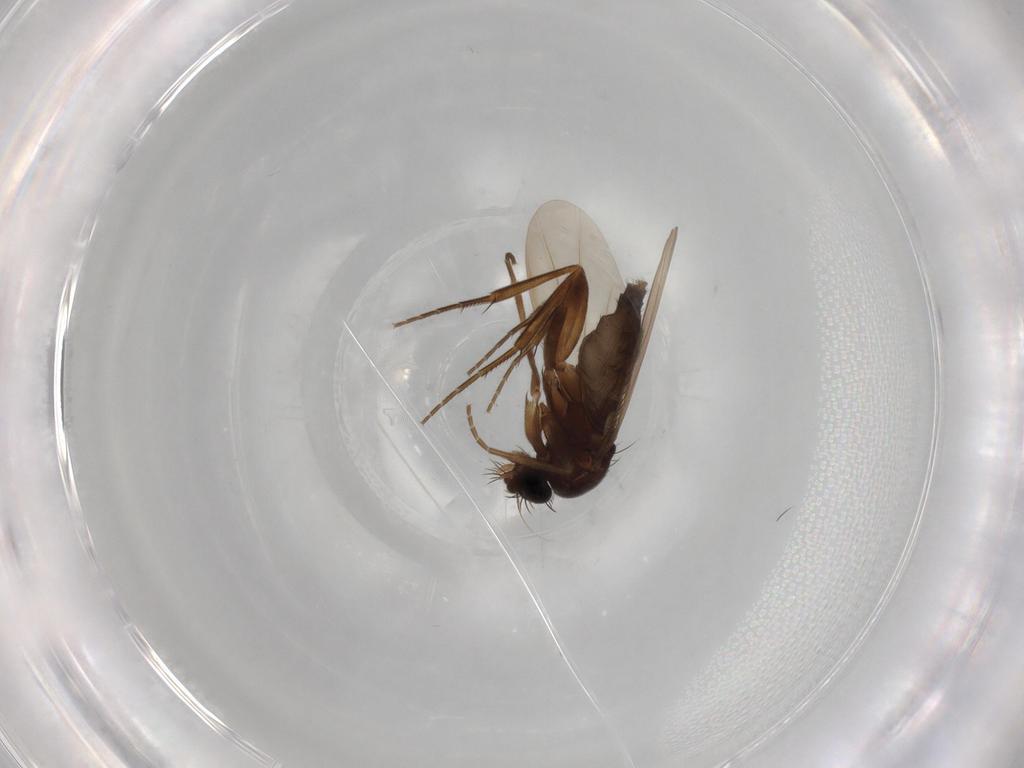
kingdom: Animalia
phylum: Arthropoda
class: Insecta
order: Diptera
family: Phoridae
